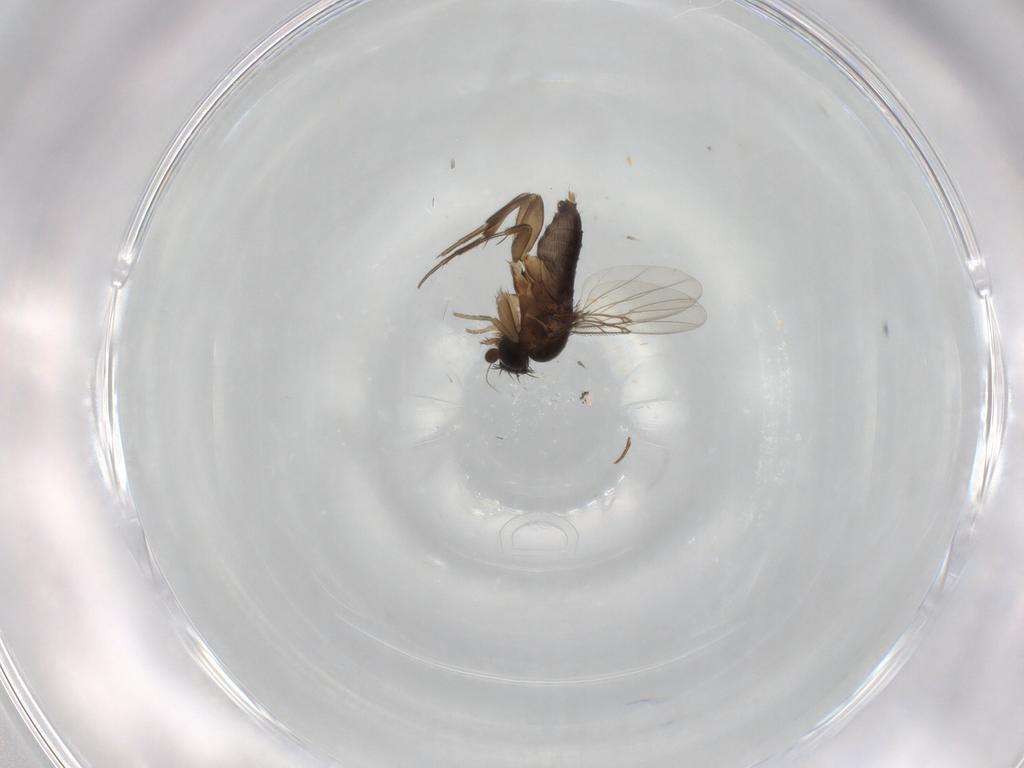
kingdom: Animalia
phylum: Arthropoda
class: Insecta
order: Diptera
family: Phoridae
